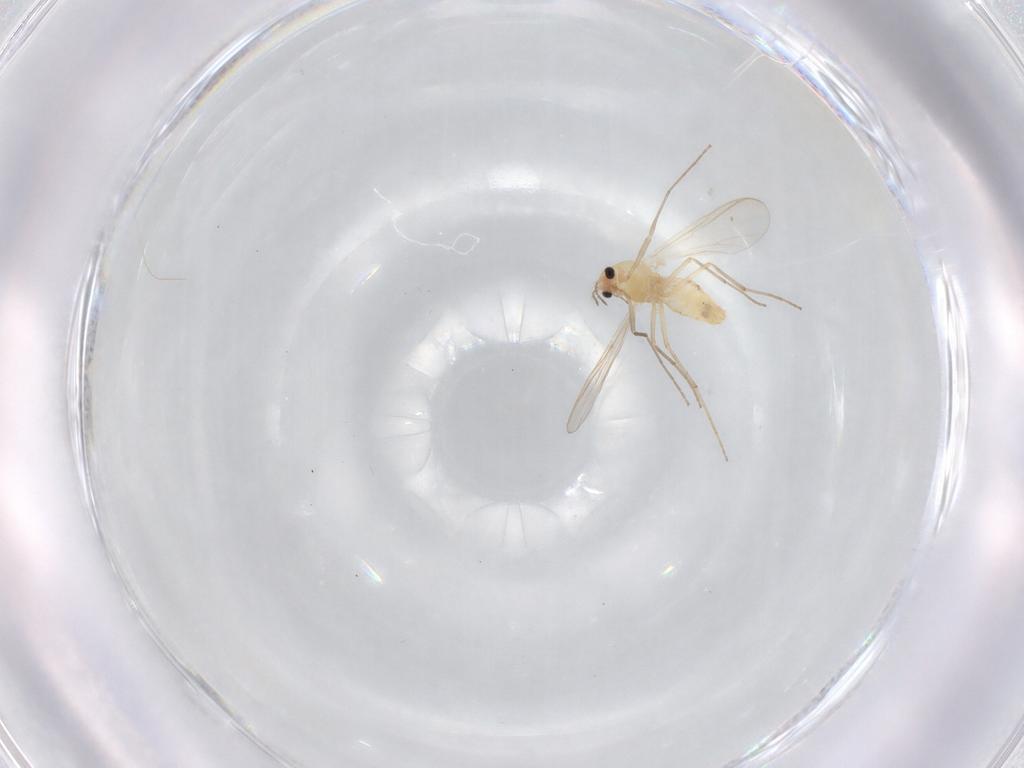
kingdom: Animalia
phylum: Arthropoda
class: Insecta
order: Diptera
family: Chironomidae
